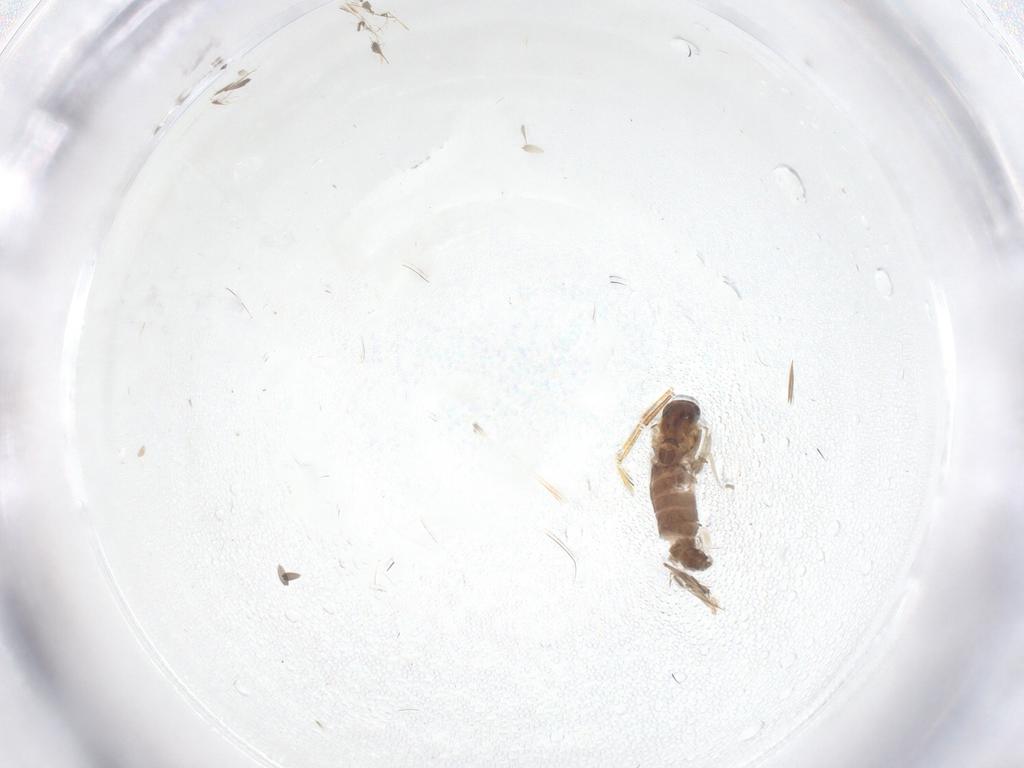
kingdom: Animalia
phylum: Arthropoda
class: Insecta
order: Diptera
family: Chironomidae
